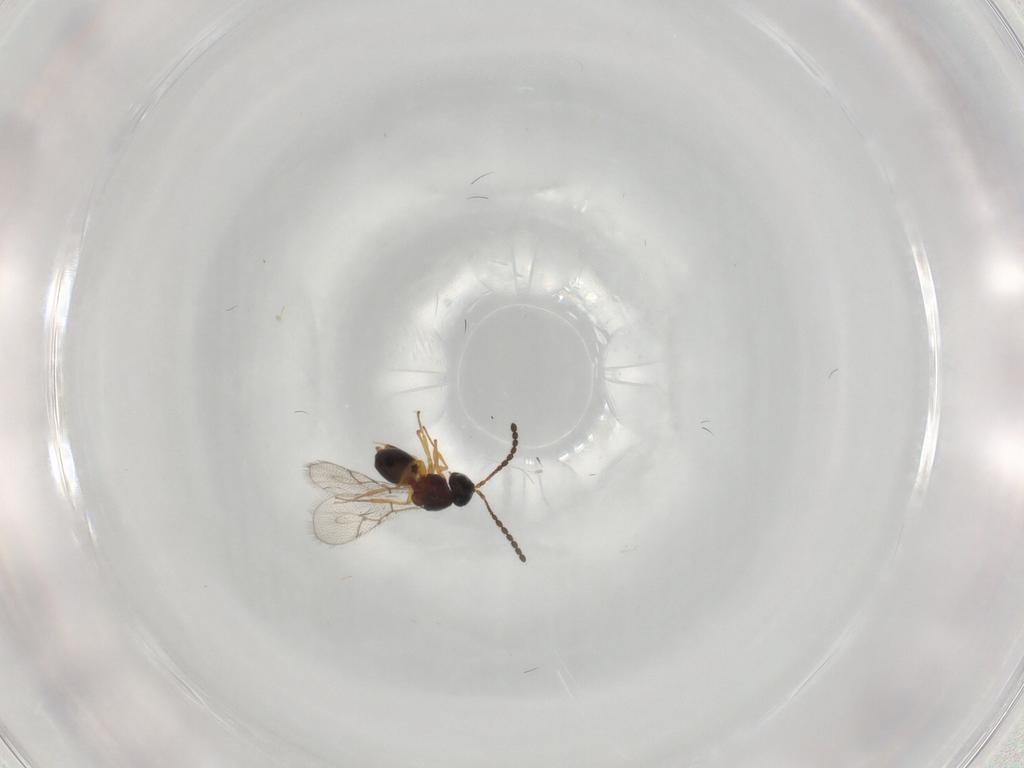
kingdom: Animalia
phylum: Arthropoda
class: Insecta
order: Hymenoptera
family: Figitidae
